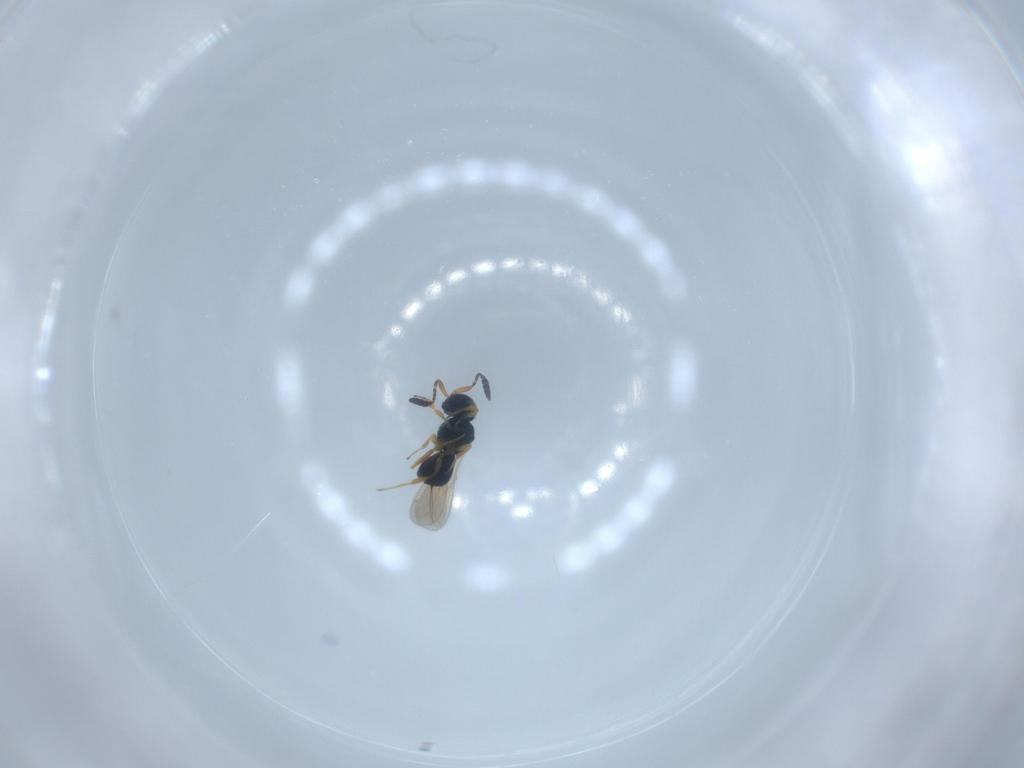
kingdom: Animalia
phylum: Arthropoda
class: Insecta
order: Hymenoptera
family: Scelionidae
